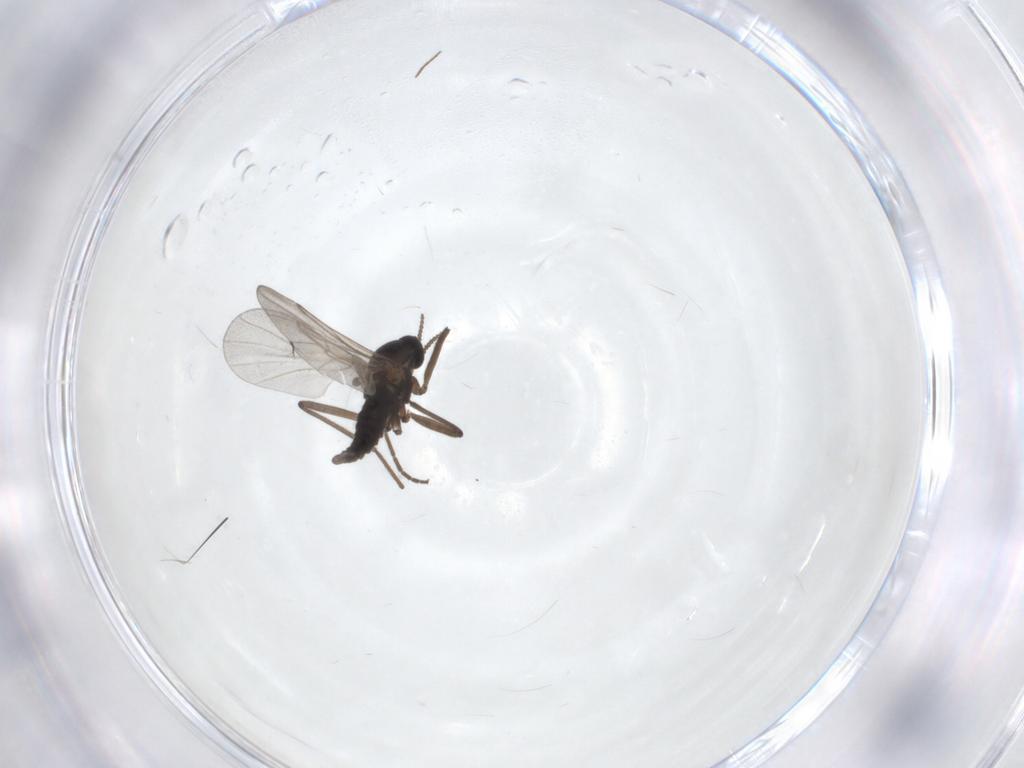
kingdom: Animalia
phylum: Arthropoda
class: Insecta
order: Diptera
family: Cecidomyiidae
